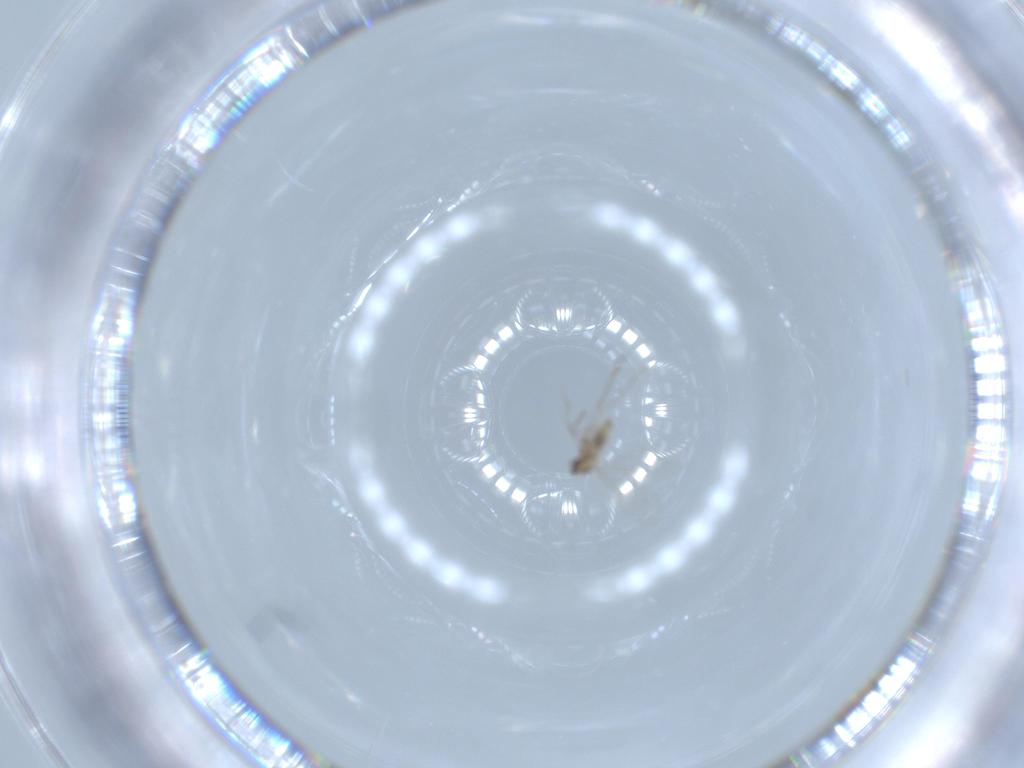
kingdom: Animalia
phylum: Arthropoda
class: Insecta
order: Diptera
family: Cecidomyiidae
